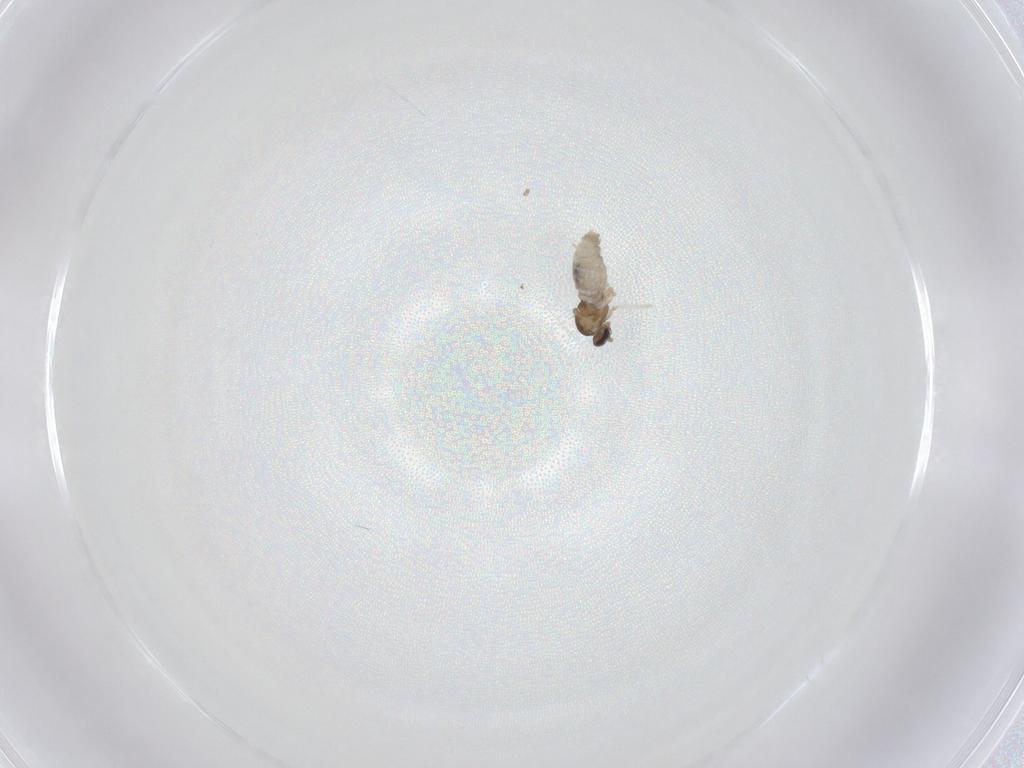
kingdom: Animalia
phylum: Arthropoda
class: Insecta
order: Diptera
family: Cecidomyiidae
